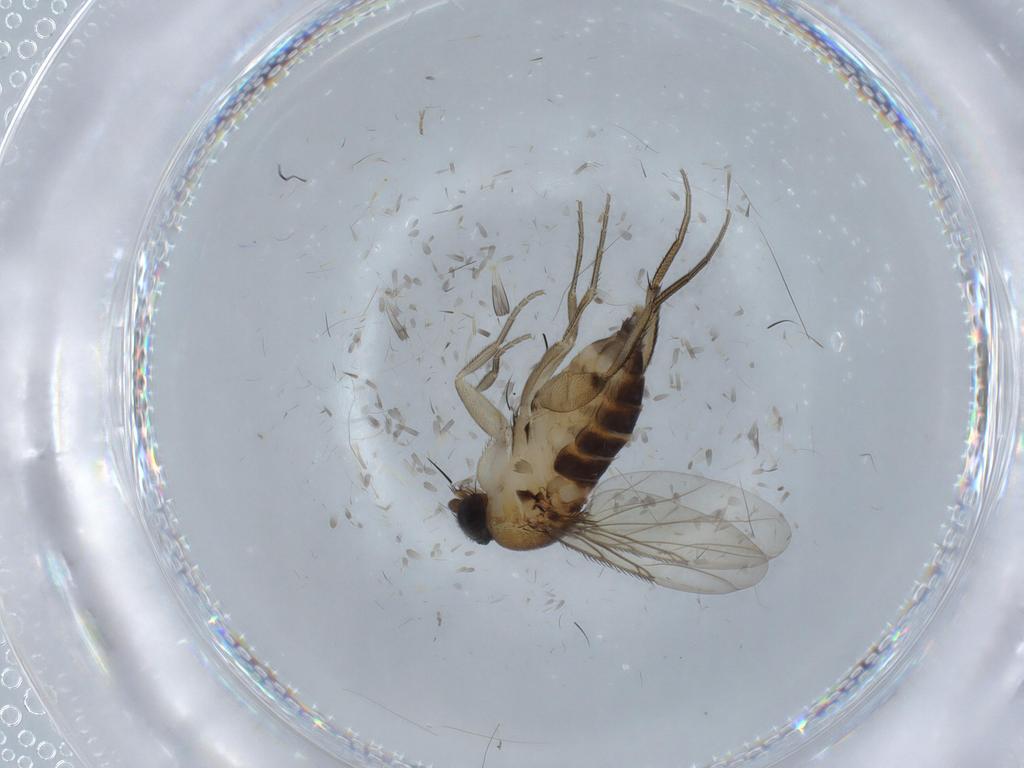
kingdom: Animalia
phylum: Arthropoda
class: Insecta
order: Diptera
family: Phoridae
